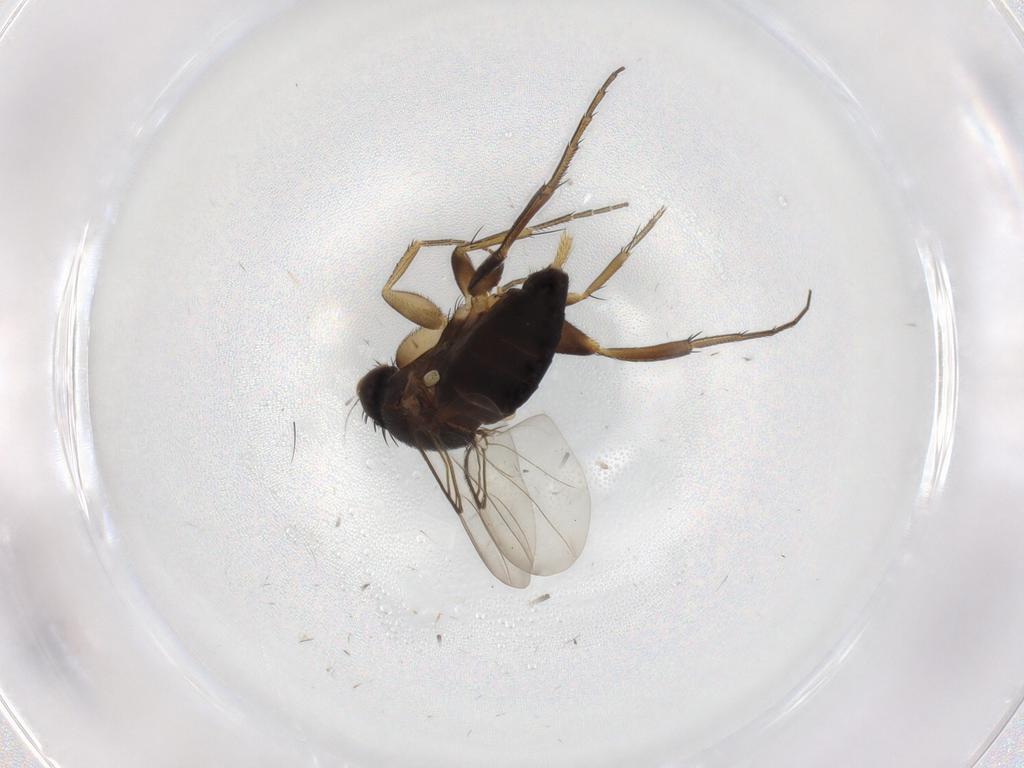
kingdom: Animalia
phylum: Arthropoda
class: Insecta
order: Diptera
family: Phoridae
